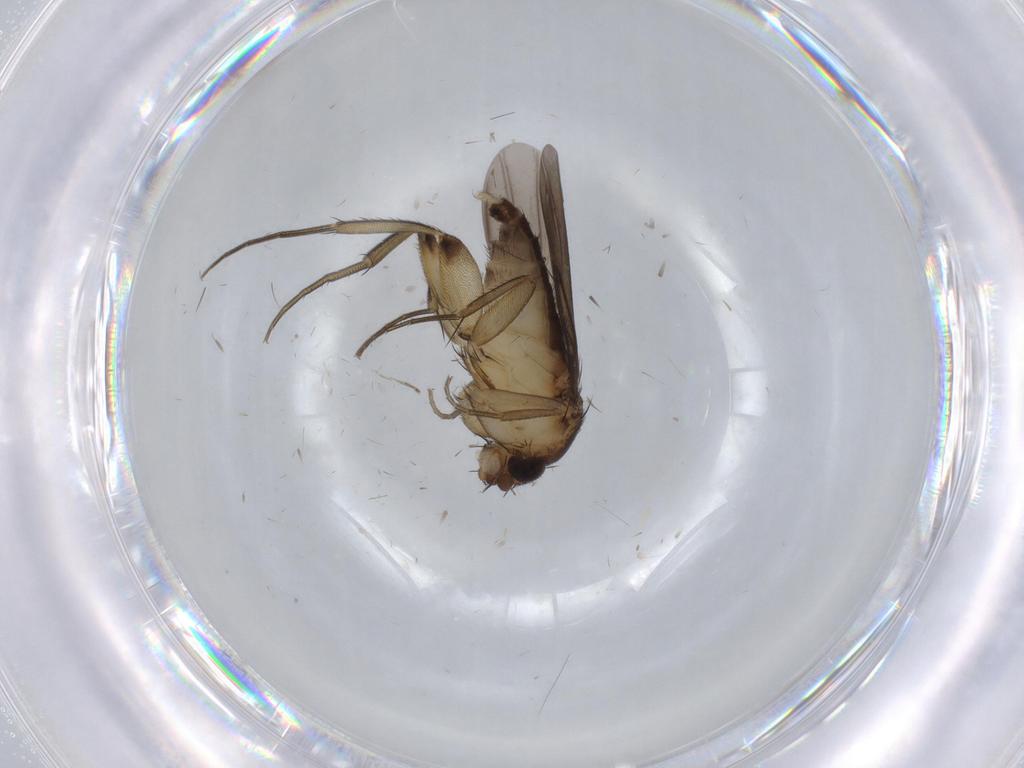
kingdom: Animalia
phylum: Arthropoda
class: Insecta
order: Diptera
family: Phoridae
